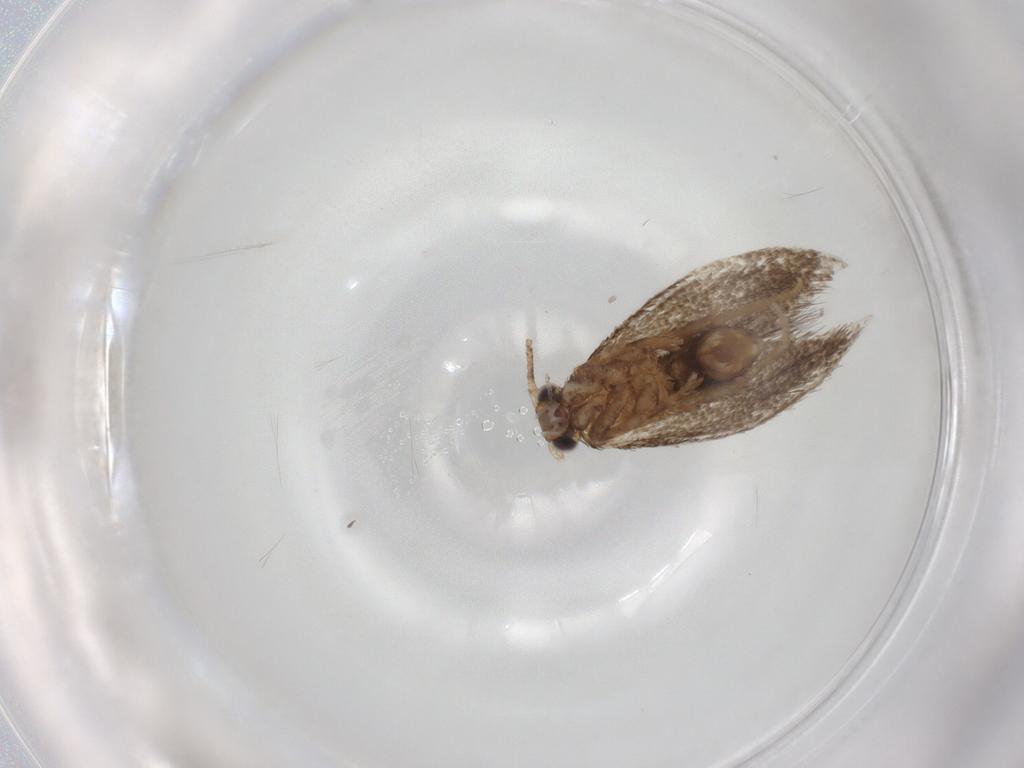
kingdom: Animalia
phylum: Arthropoda
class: Insecta
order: Lepidoptera
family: Tineidae
